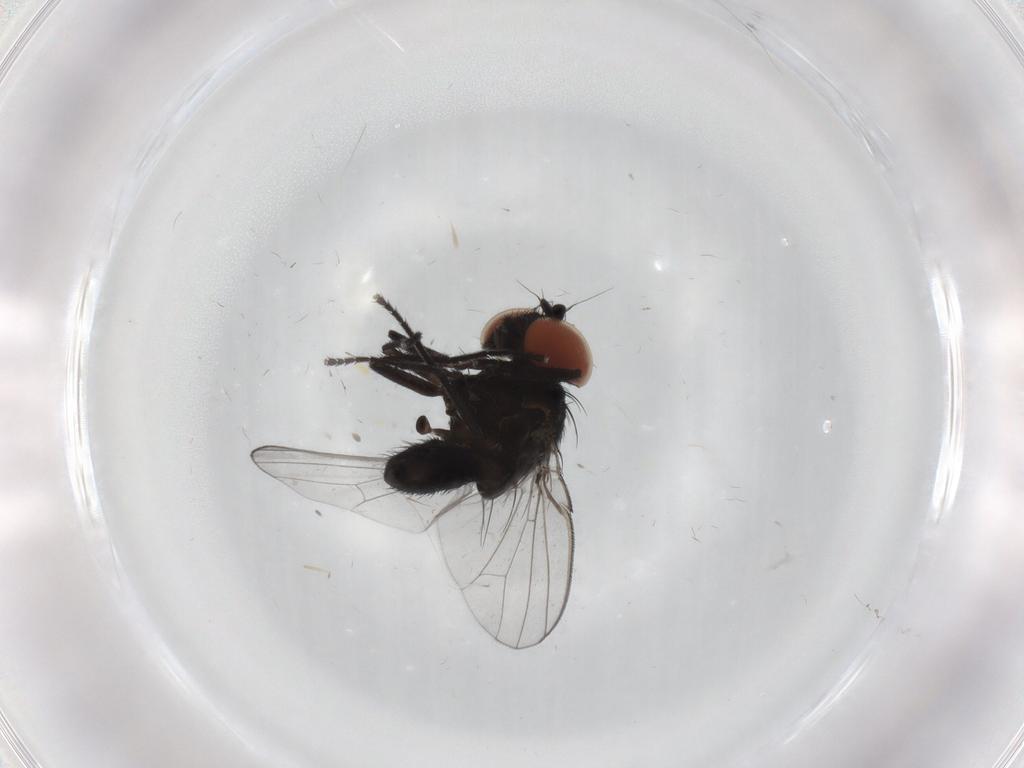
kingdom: Animalia
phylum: Arthropoda
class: Insecta
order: Diptera
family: Milichiidae
